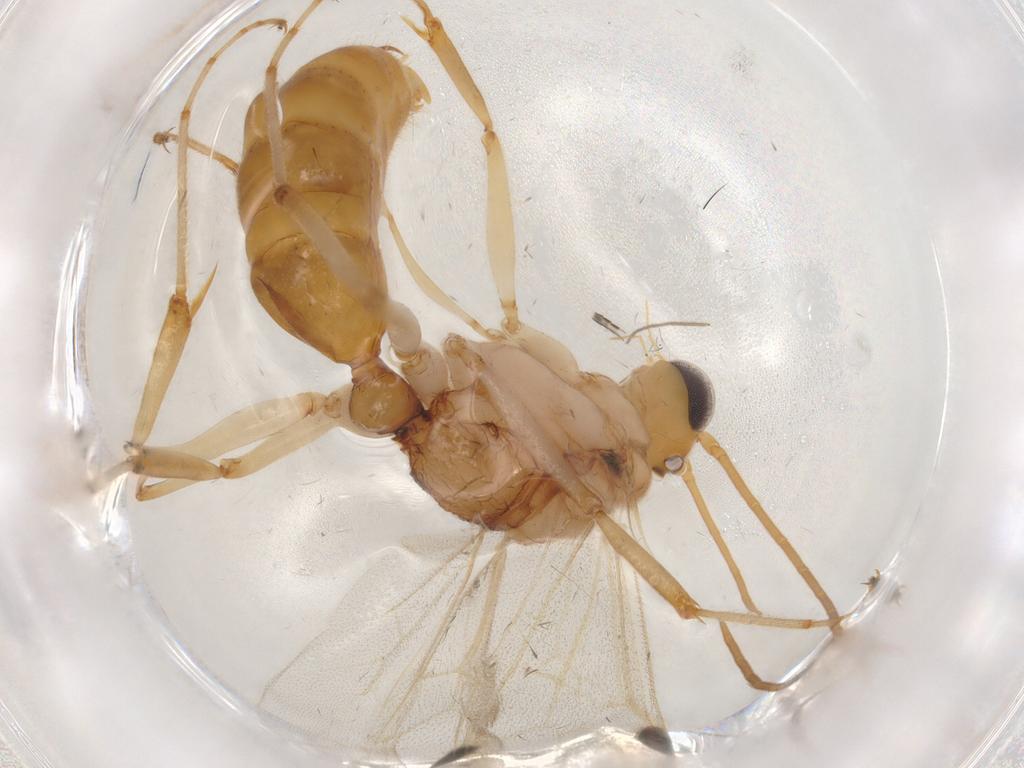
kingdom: Animalia
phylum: Arthropoda
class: Insecta
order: Hymenoptera
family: Formicidae
